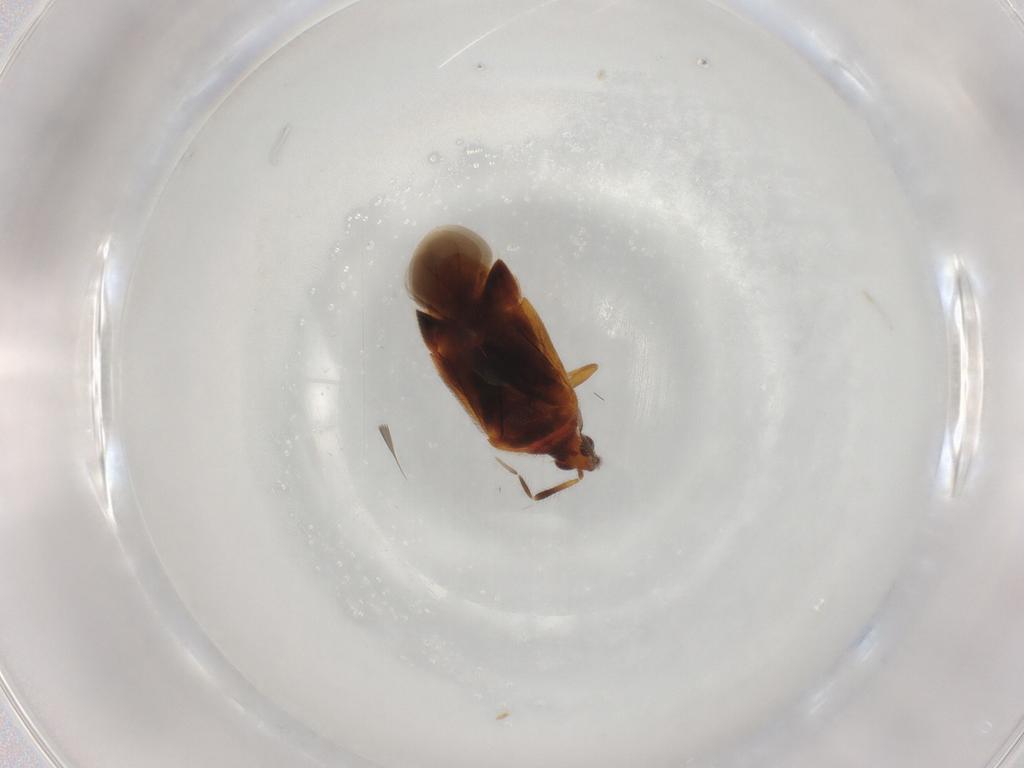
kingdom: Animalia
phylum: Arthropoda
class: Insecta
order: Hemiptera
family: Anthocoridae
